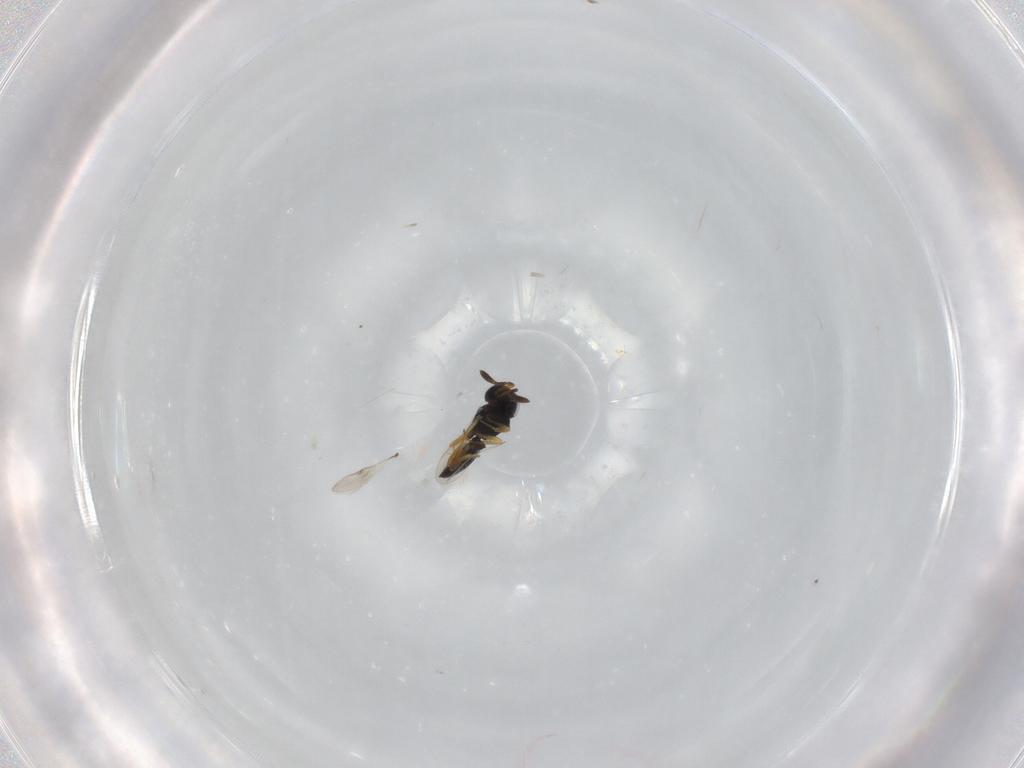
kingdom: Animalia
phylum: Arthropoda
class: Insecta
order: Hymenoptera
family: Scelionidae
